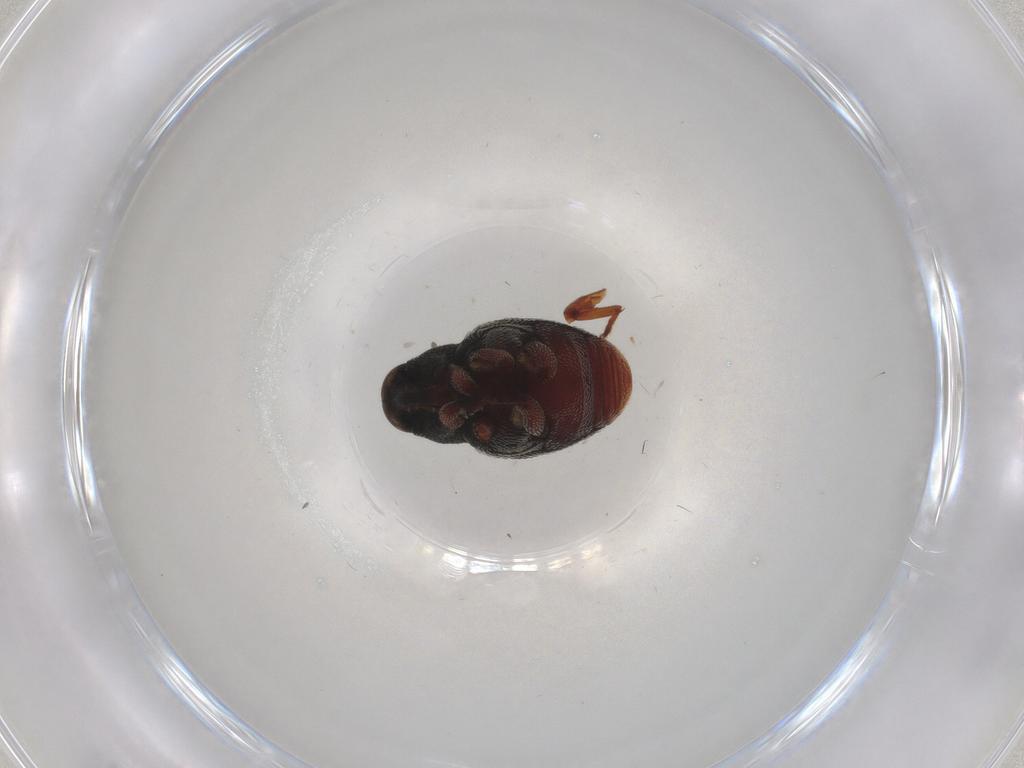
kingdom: Animalia
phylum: Arthropoda
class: Insecta
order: Coleoptera
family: Curculionidae
